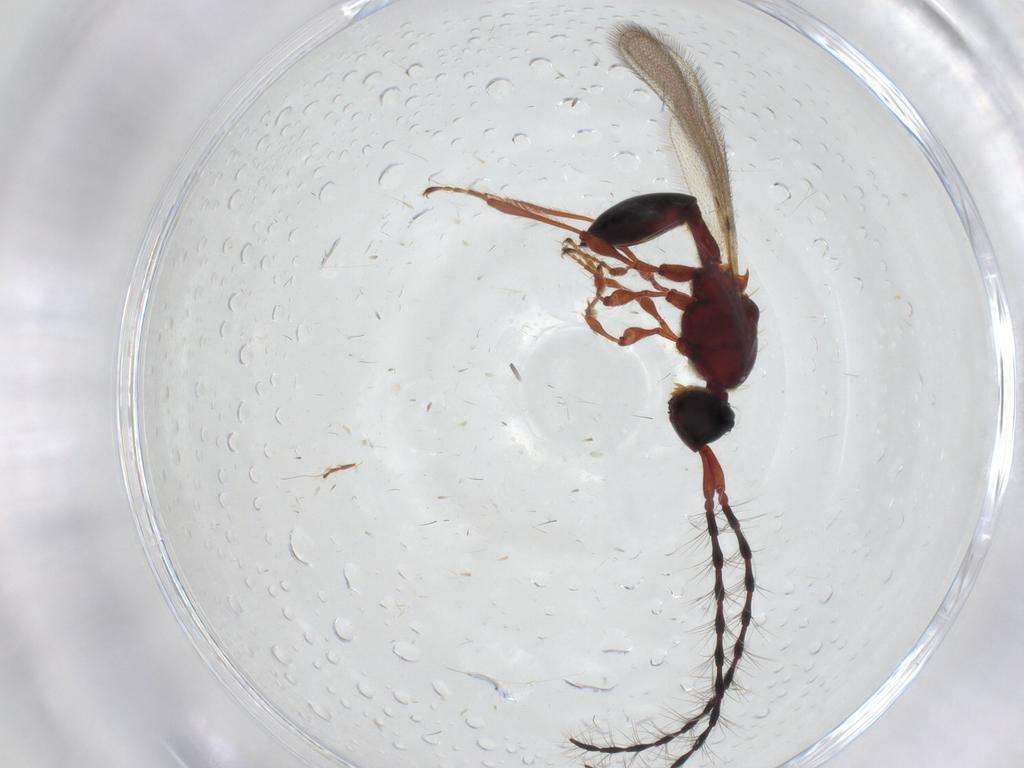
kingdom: Animalia
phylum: Arthropoda
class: Insecta
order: Hymenoptera
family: Diapriidae
